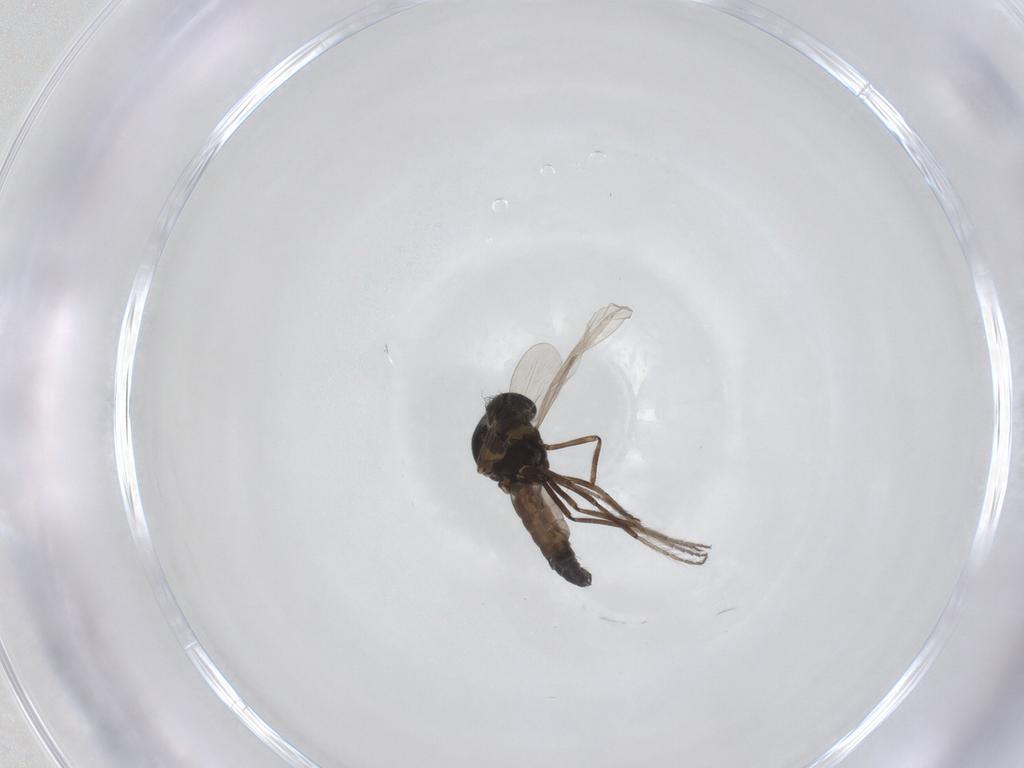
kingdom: Animalia
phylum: Arthropoda
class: Insecta
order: Diptera
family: Ceratopogonidae
